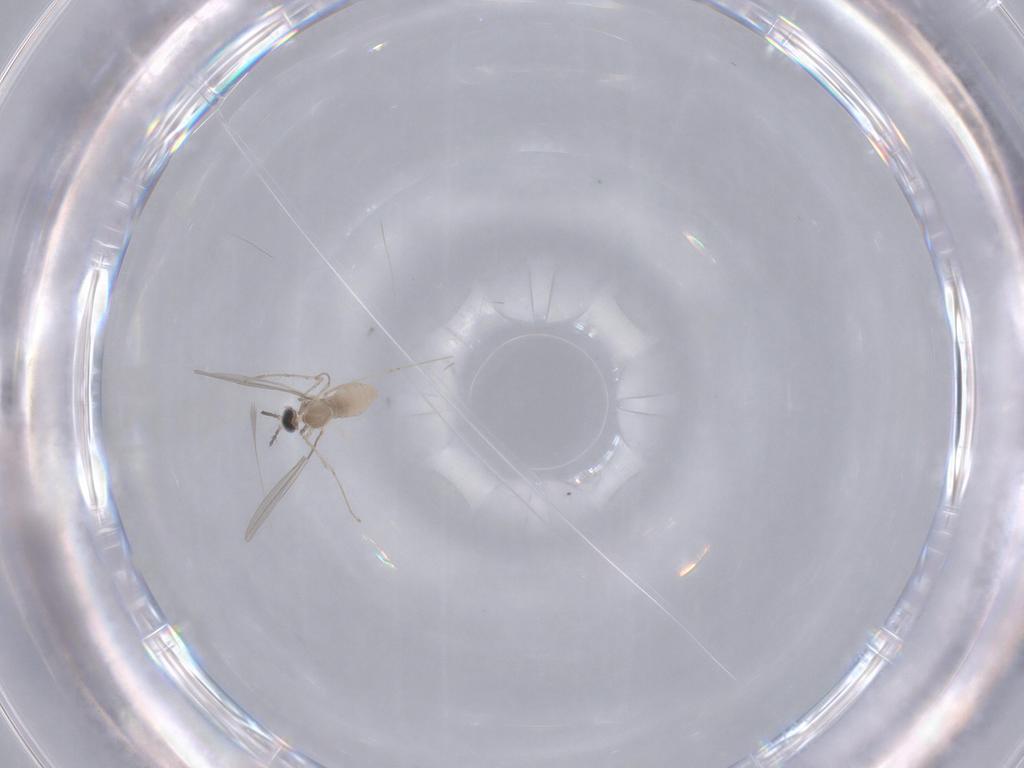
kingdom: Animalia
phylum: Arthropoda
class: Insecta
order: Diptera
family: Cecidomyiidae
